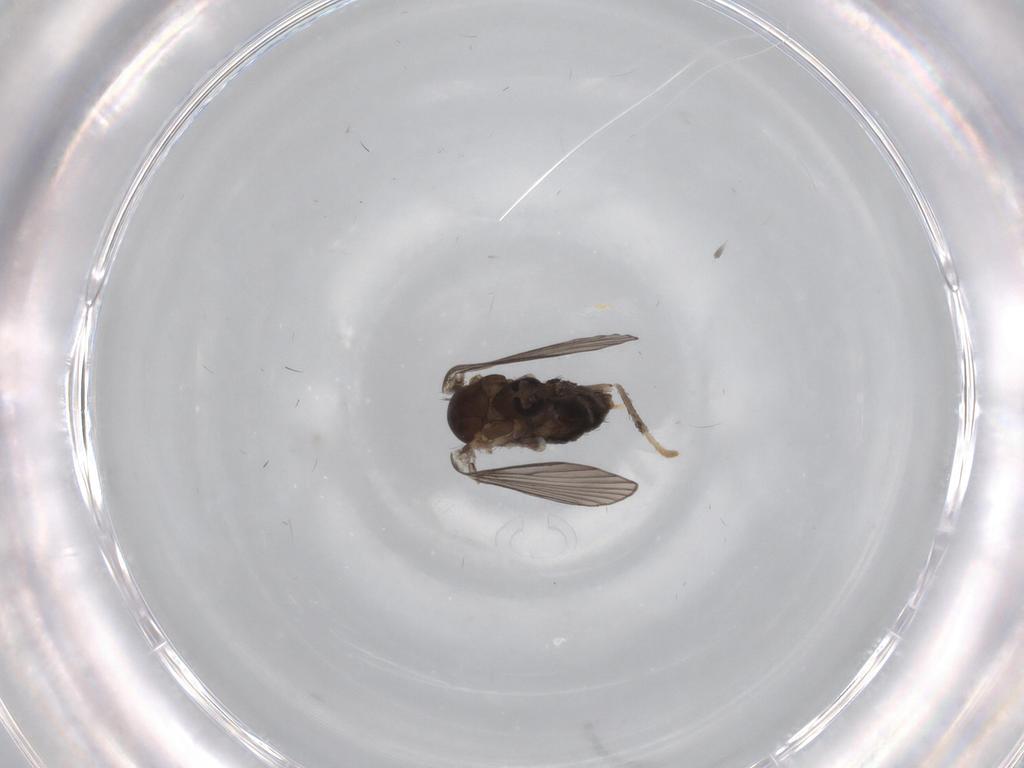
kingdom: Animalia
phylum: Arthropoda
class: Insecta
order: Diptera
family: Psychodidae
